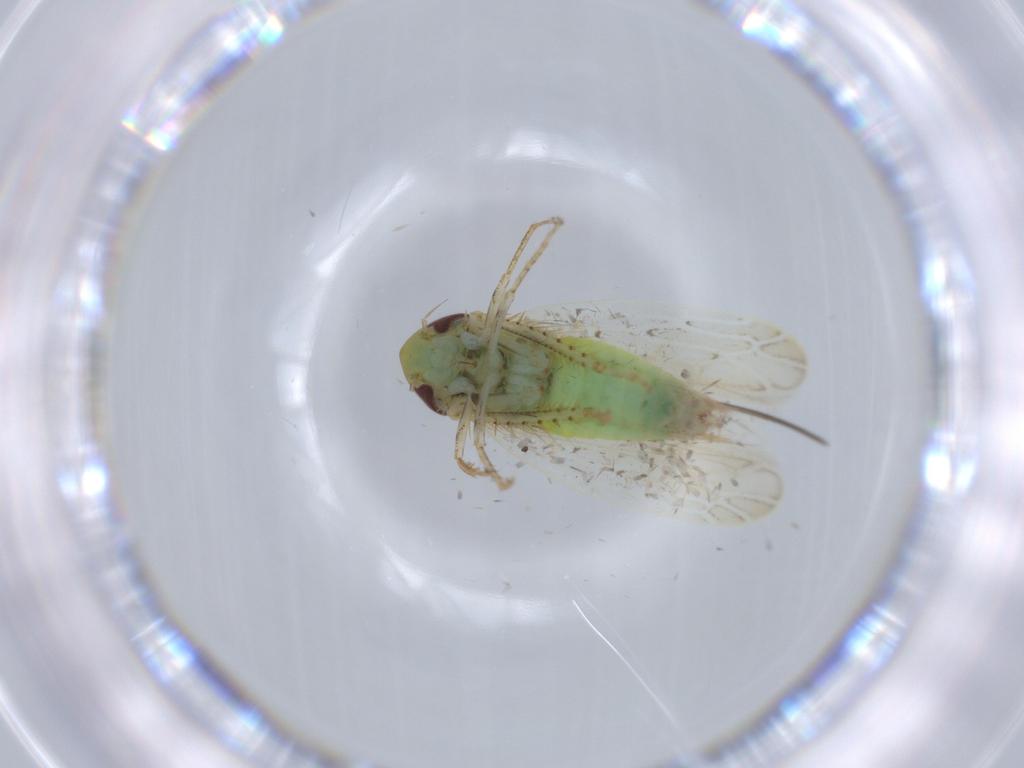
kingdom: Animalia
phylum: Arthropoda
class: Insecta
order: Hemiptera
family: Cicadellidae
